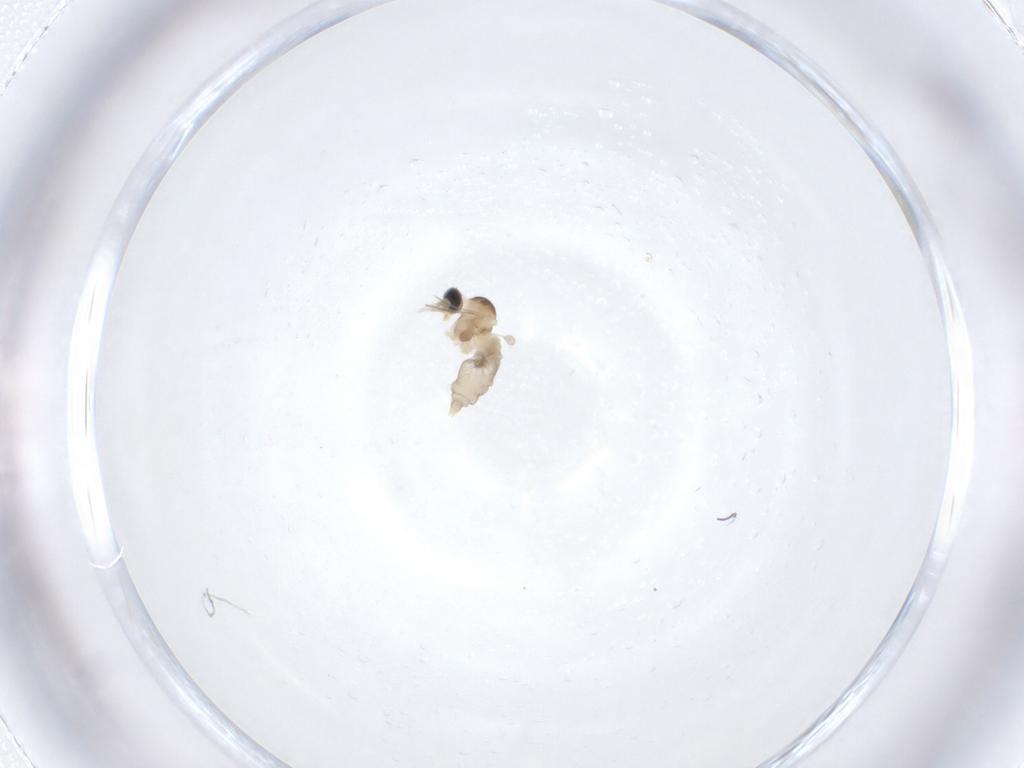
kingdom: Animalia
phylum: Arthropoda
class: Insecta
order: Diptera
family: Cecidomyiidae
